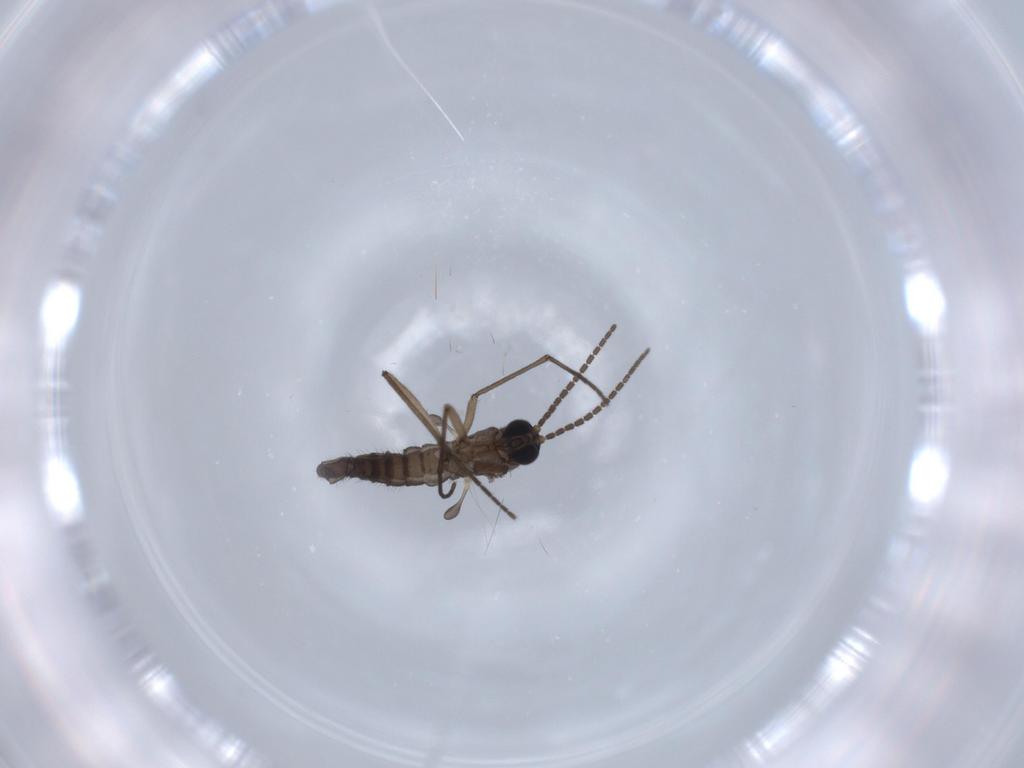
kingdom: Animalia
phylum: Arthropoda
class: Insecta
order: Diptera
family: Sciaridae
